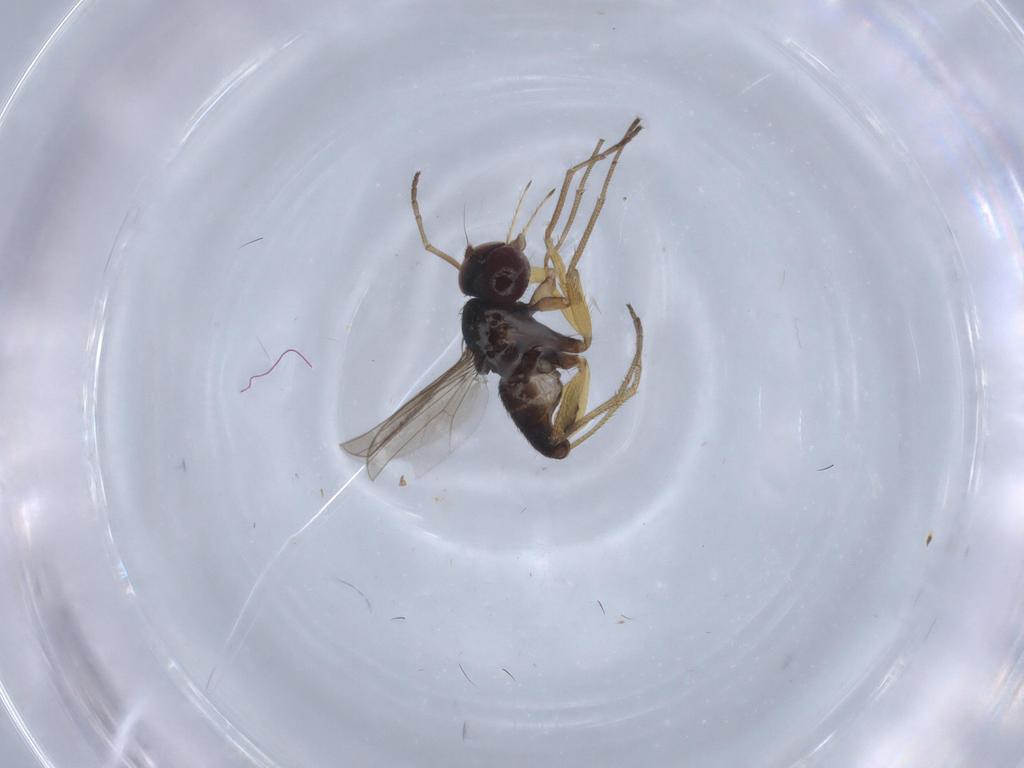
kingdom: Animalia
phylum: Arthropoda
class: Insecta
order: Diptera
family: Dolichopodidae
